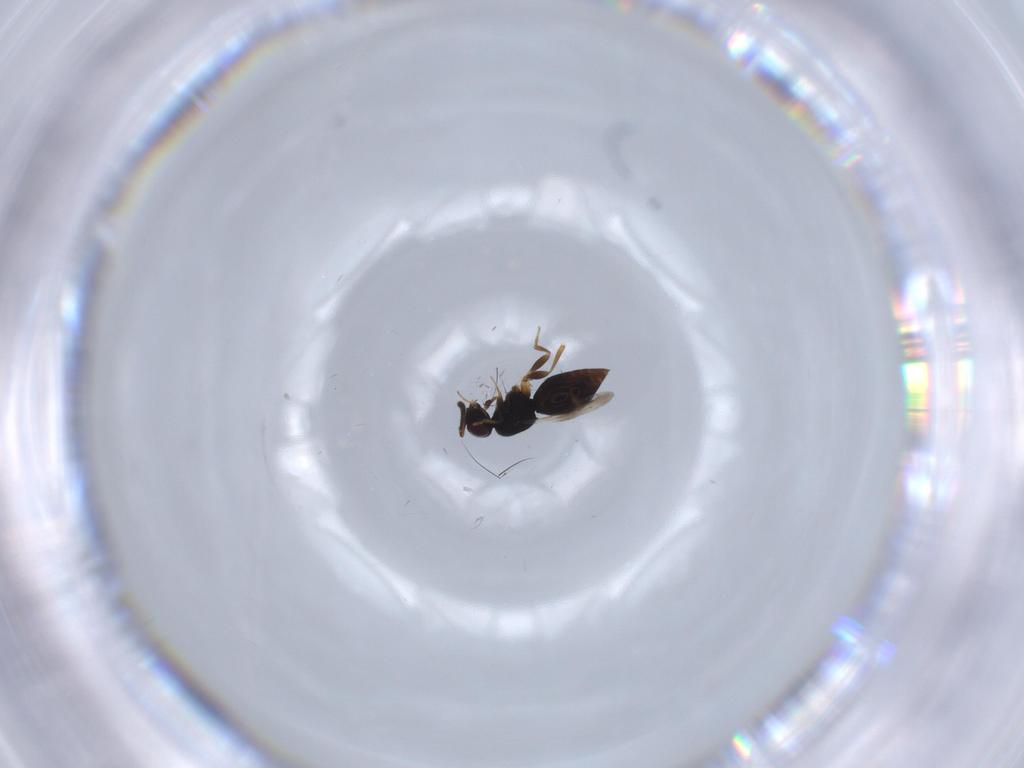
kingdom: Animalia
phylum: Arthropoda
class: Insecta
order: Hymenoptera
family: Ceraphronidae
